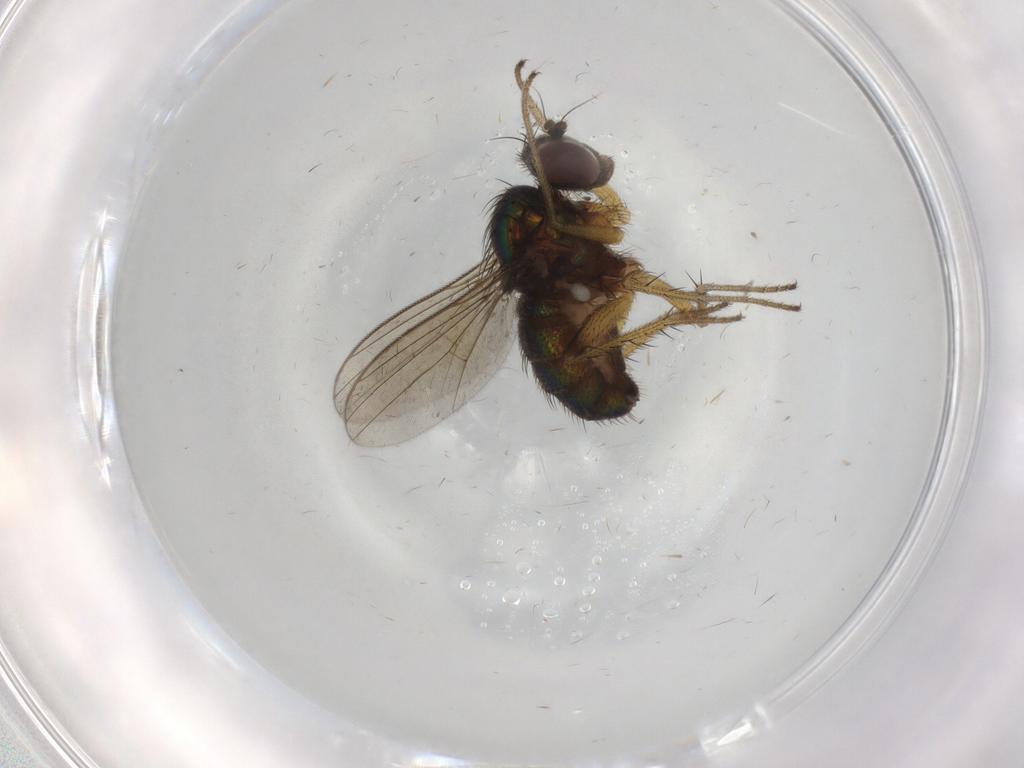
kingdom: Animalia
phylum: Arthropoda
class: Insecta
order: Diptera
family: Dolichopodidae
